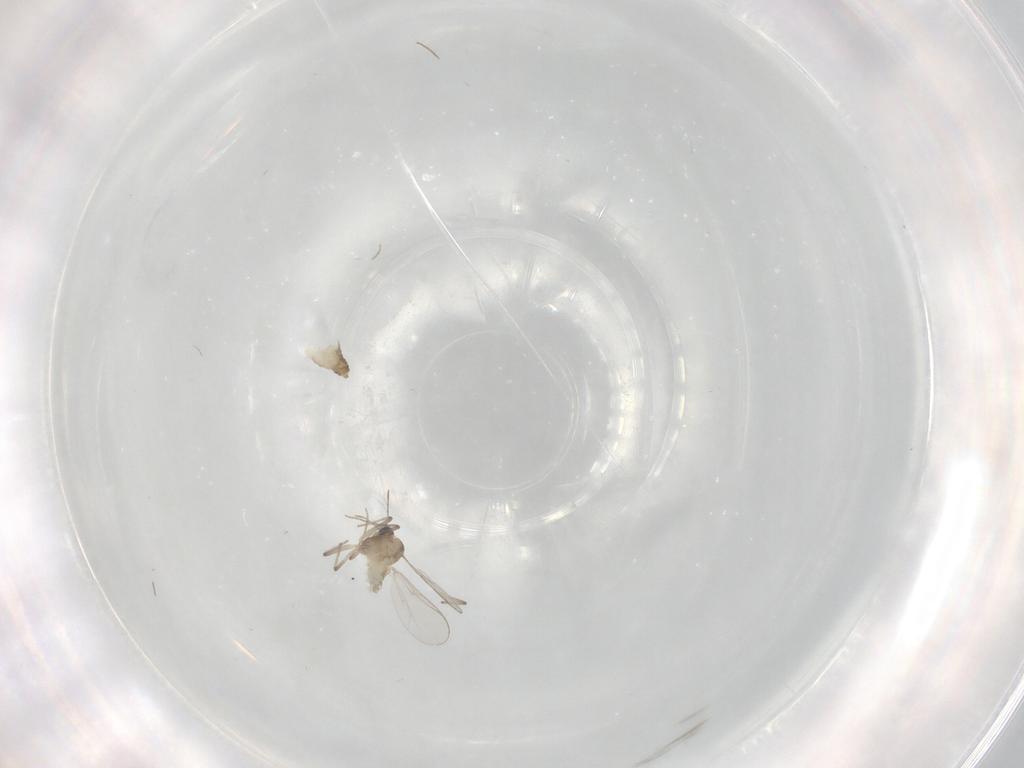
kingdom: Animalia
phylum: Arthropoda
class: Insecta
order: Diptera
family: Chironomidae
